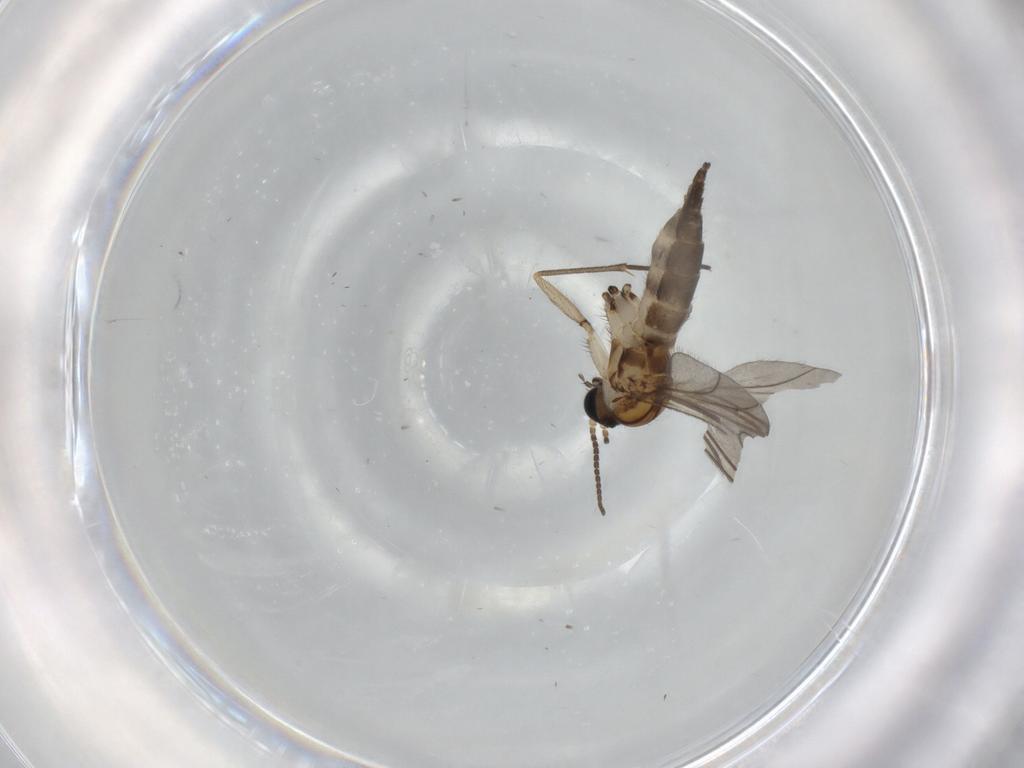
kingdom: Animalia
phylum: Arthropoda
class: Insecta
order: Diptera
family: Sciaridae
